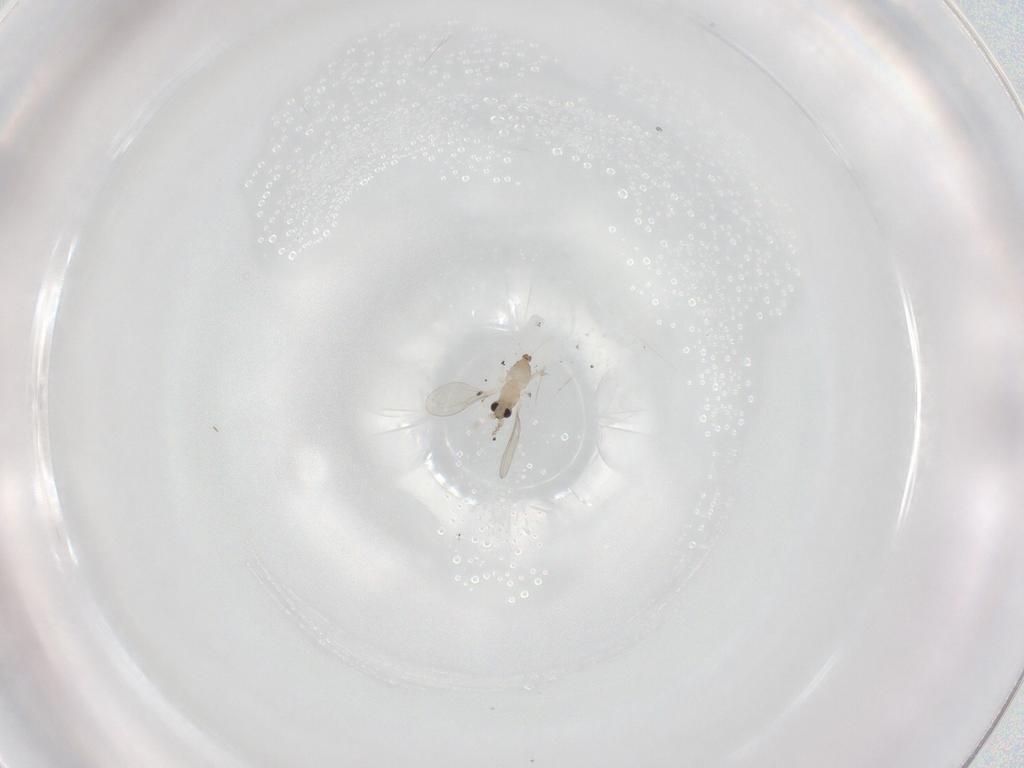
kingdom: Animalia
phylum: Arthropoda
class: Insecta
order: Diptera
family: Cecidomyiidae
